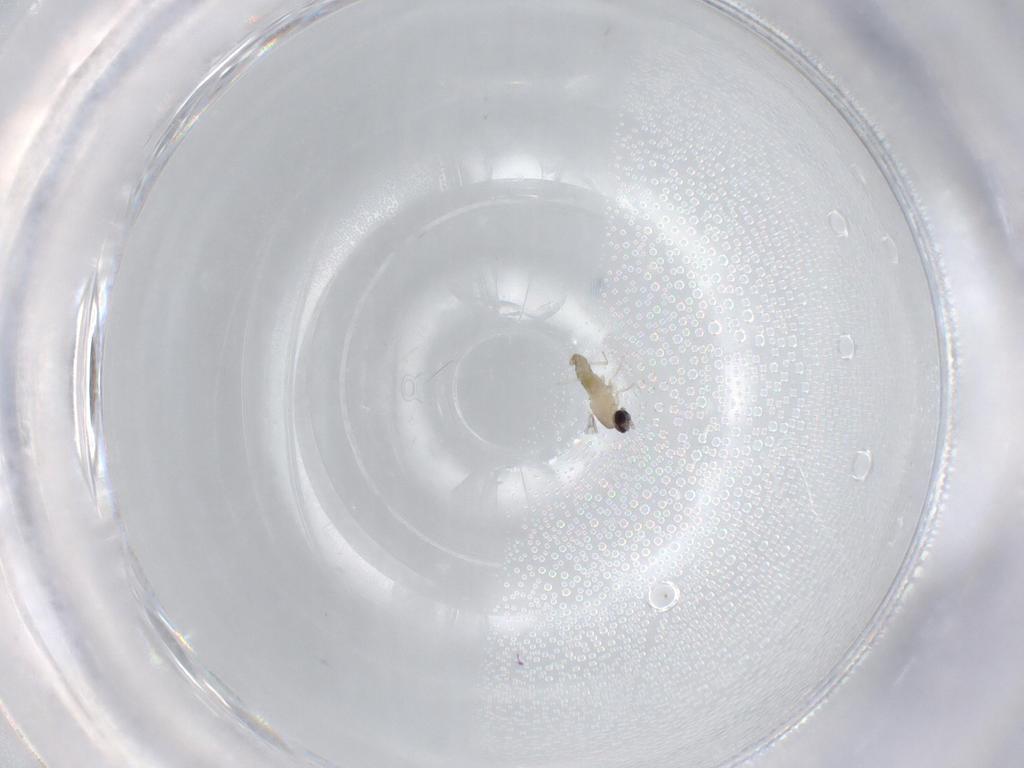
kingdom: Animalia
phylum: Arthropoda
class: Insecta
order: Diptera
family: Cecidomyiidae
